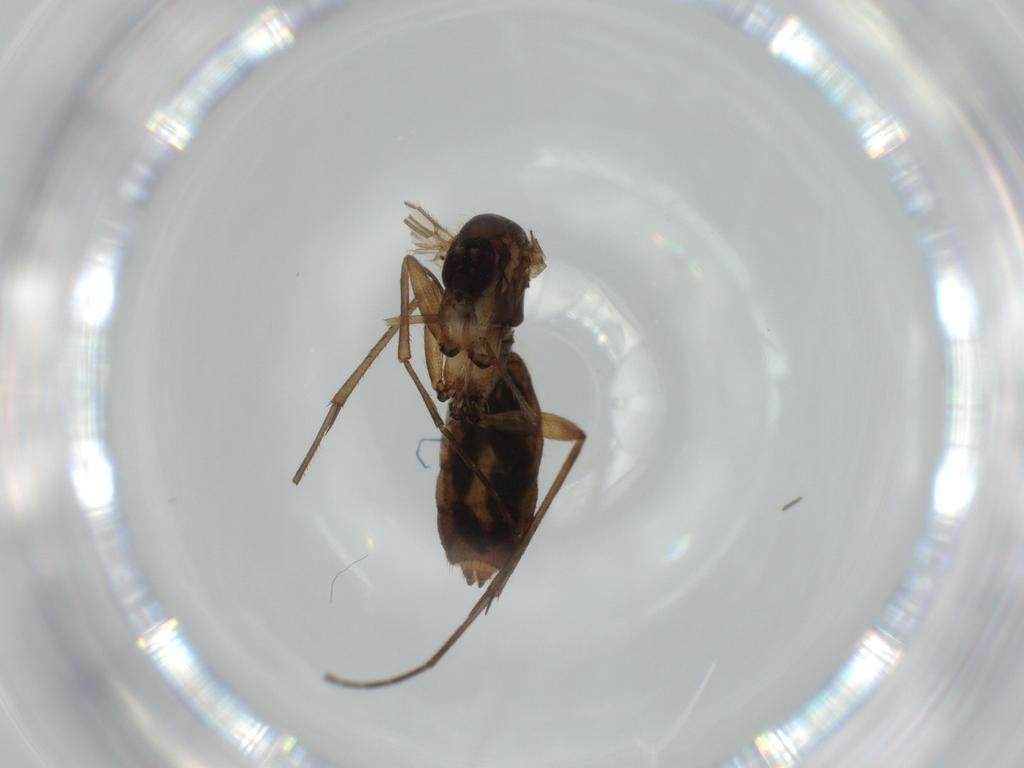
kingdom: Animalia
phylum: Arthropoda
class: Insecta
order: Diptera
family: Mycetophilidae
